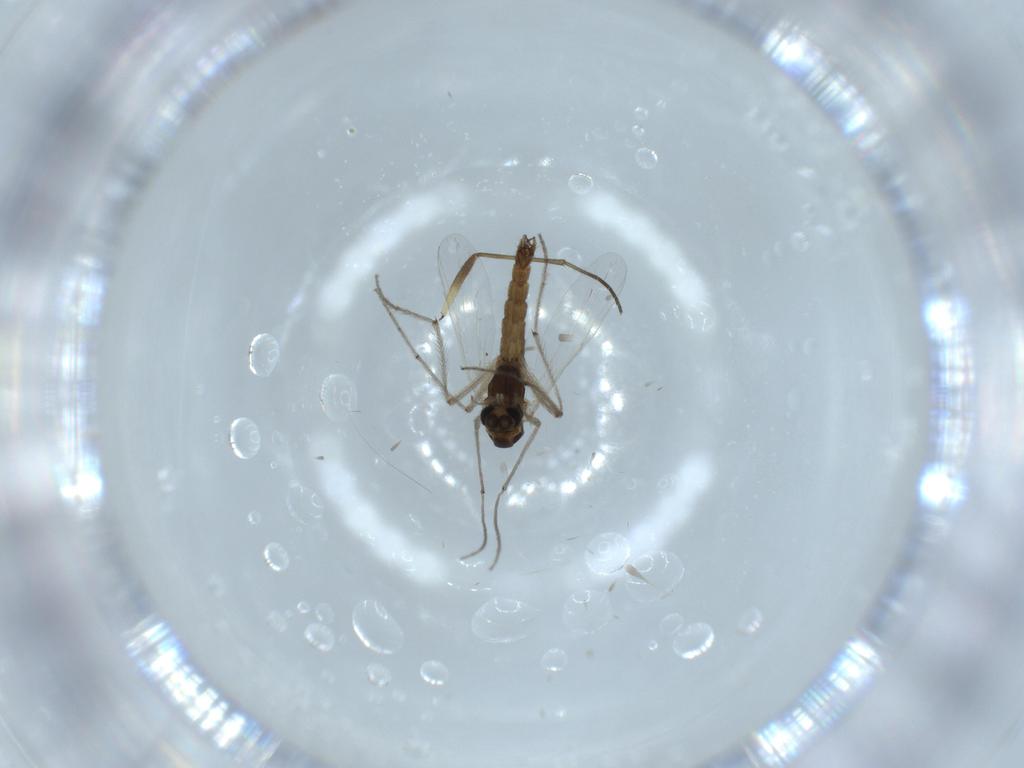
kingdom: Animalia
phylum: Arthropoda
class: Insecta
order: Diptera
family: Chironomidae
